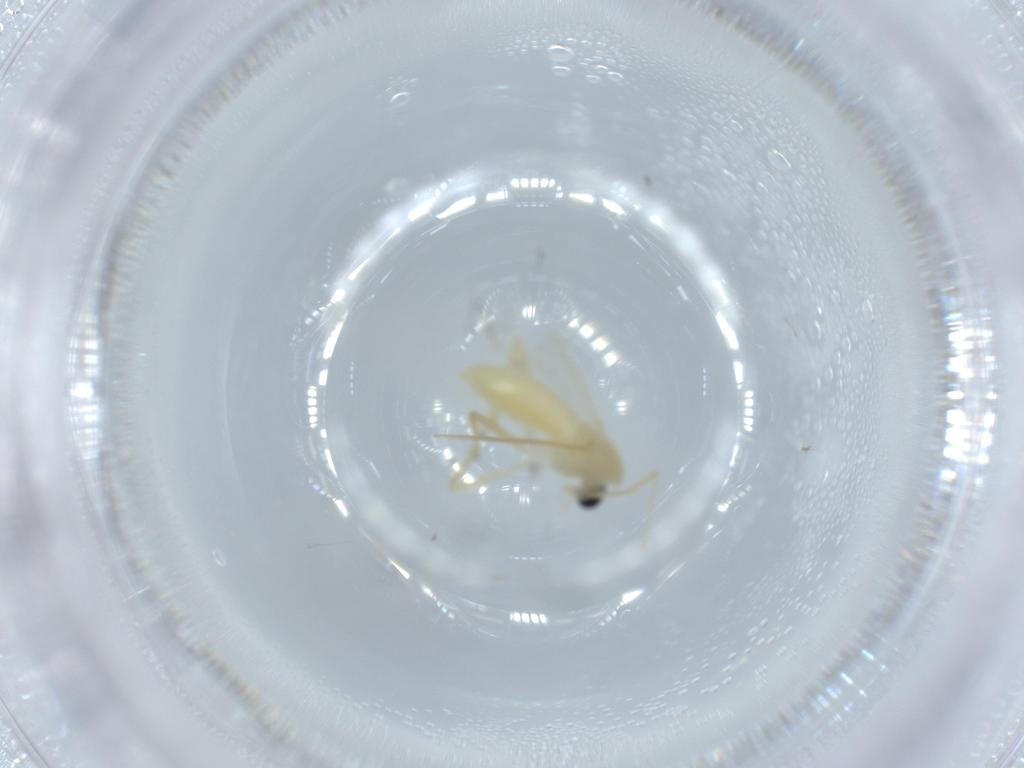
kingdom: Animalia
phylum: Arthropoda
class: Insecta
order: Diptera
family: Chironomidae
